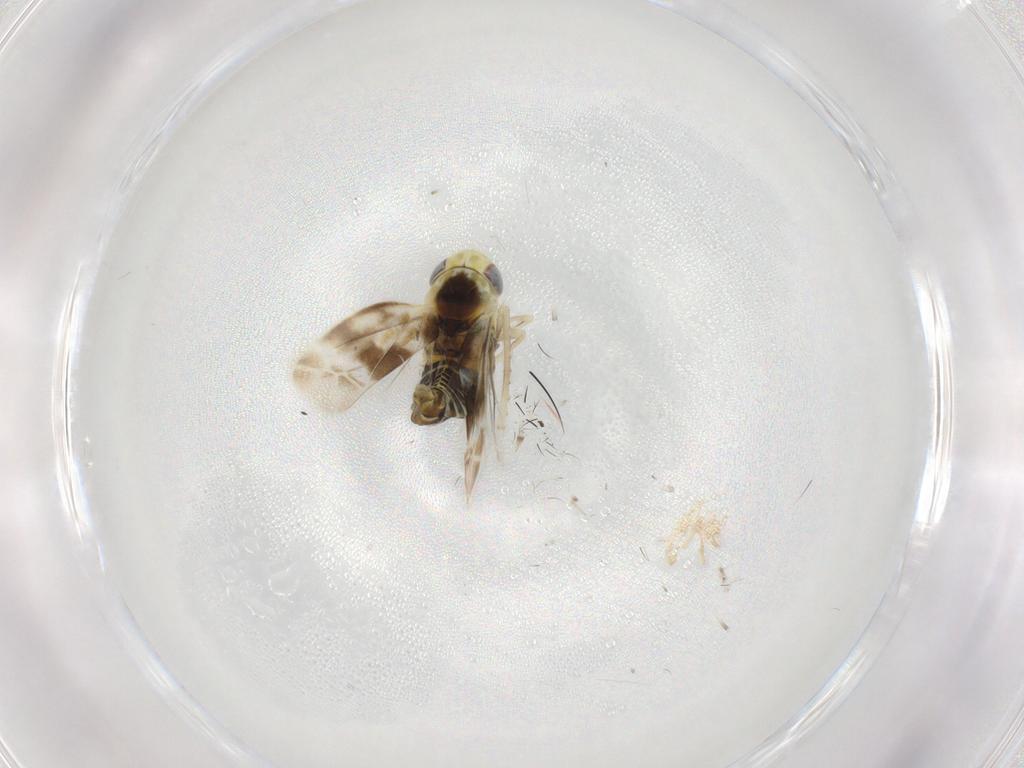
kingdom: Animalia
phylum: Arthropoda
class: Insecta
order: Hemiptera
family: Cicadellidae
